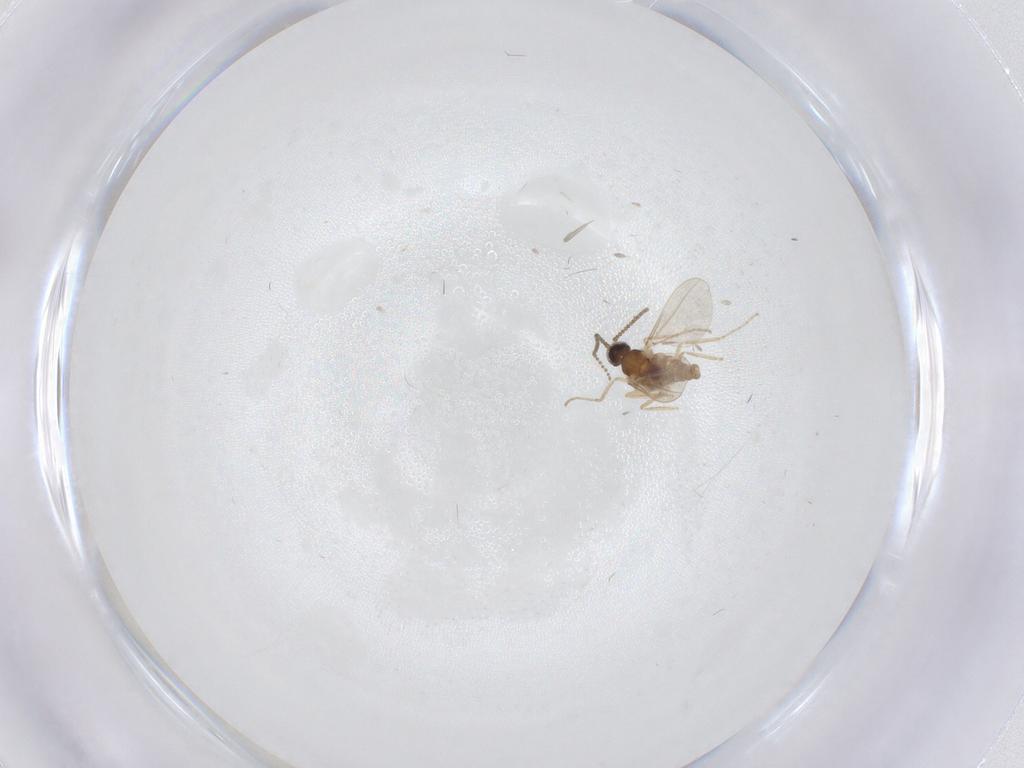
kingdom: Animalia
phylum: Arthropoda
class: Insecta
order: Diptera
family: Cecidomyiidae
